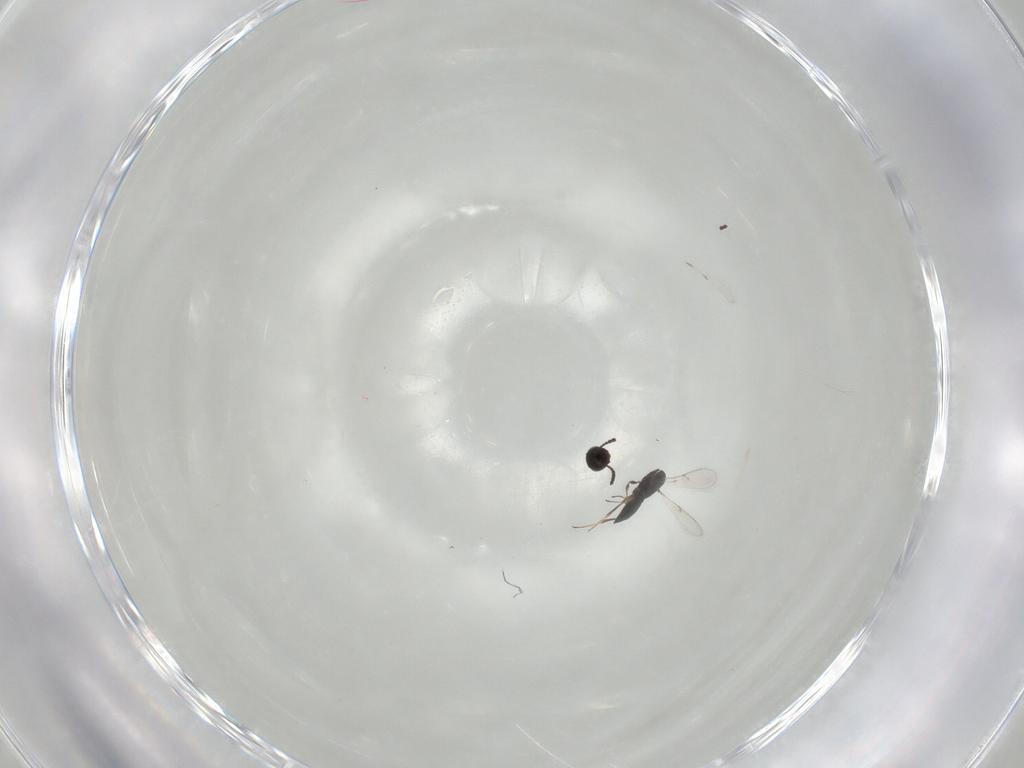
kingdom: Animalia
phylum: Arthropoda
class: Insecta
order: Hymenoptera
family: Scelionidae
